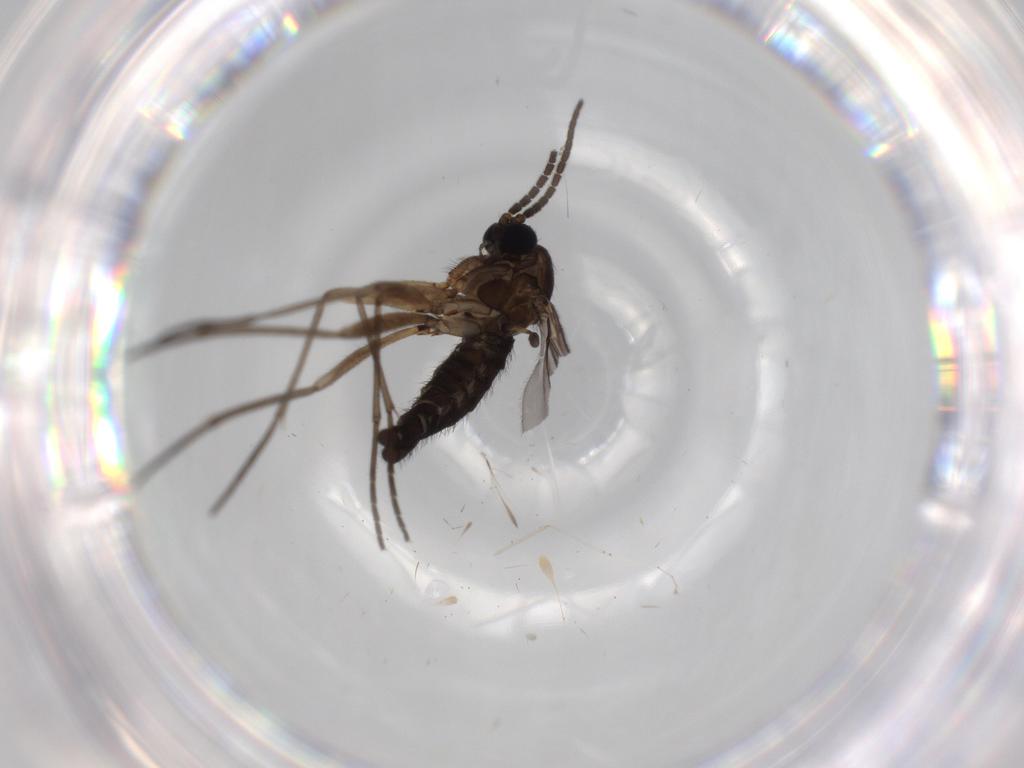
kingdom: Animalia
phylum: Arthropoda
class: Insecta
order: Diptera
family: Sciaridae
